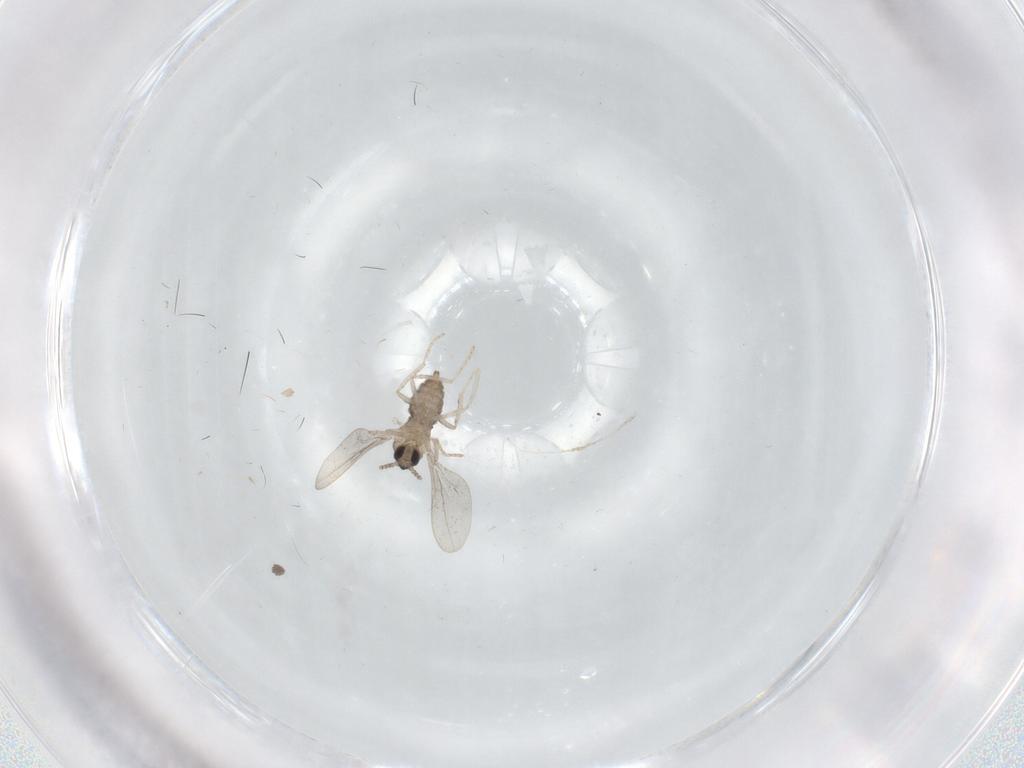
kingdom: Animalia
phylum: Arthropoda
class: Insecta
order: Diptera
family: Cecidomyiidae
